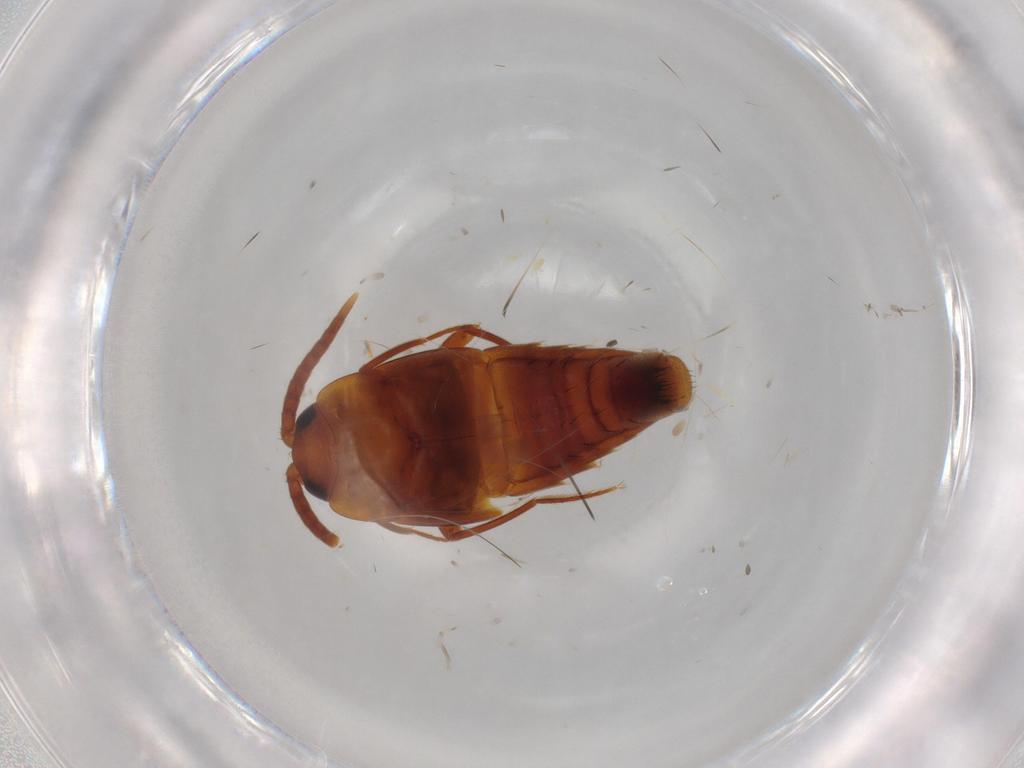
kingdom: Animalia
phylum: Arthropoda
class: Insecta
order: Coleoptera
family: Staphylinidae
